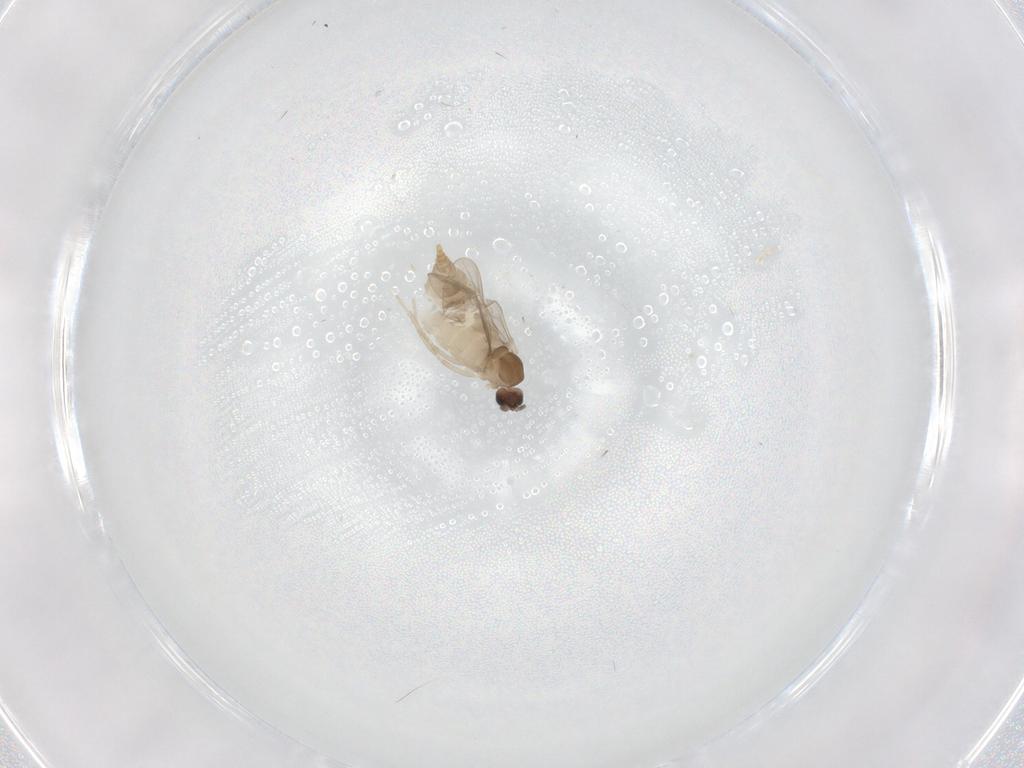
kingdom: Animalia
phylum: Arthropoda
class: Insecta
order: Diptera
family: Cecidomyiidae
